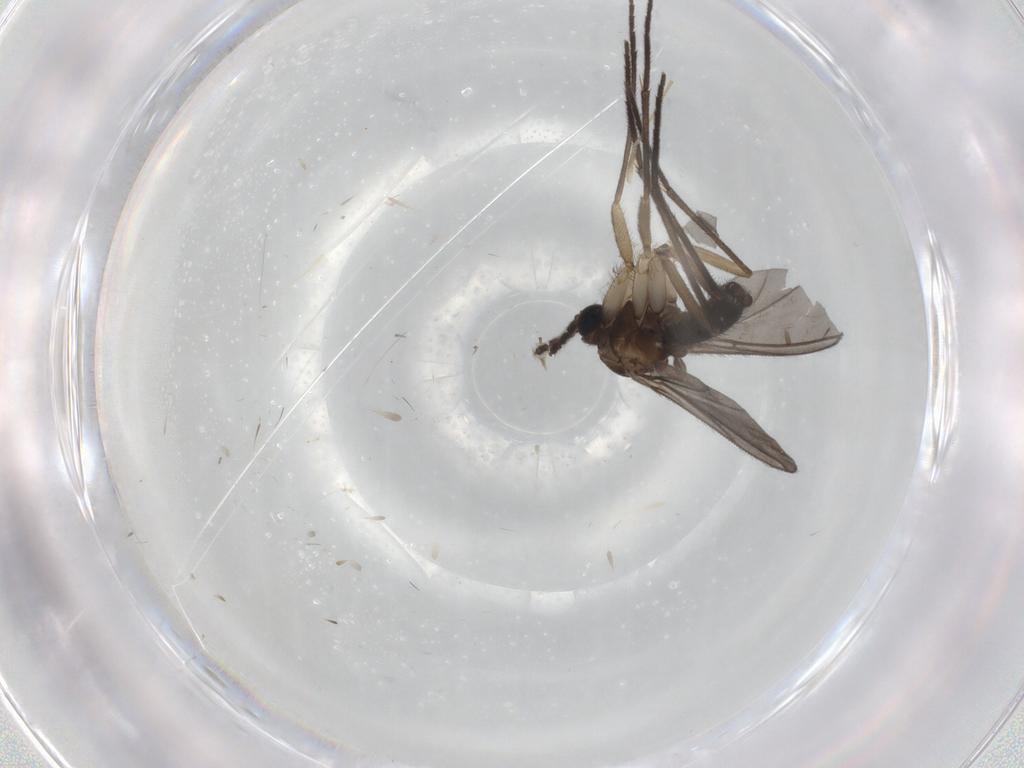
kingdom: Animalia
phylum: Arthropoda
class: Insecta
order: Diptera
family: Sciaridae
